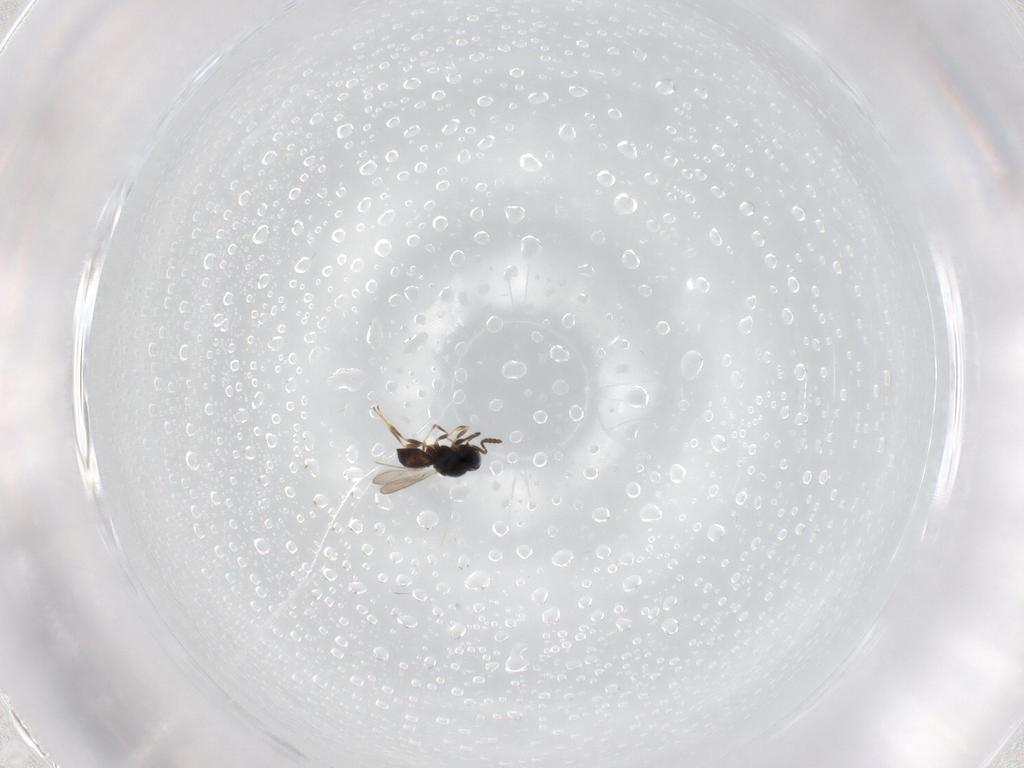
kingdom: Animalia
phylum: Arthropoda
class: Insecta
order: Hymenoptera
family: Scelionidae
